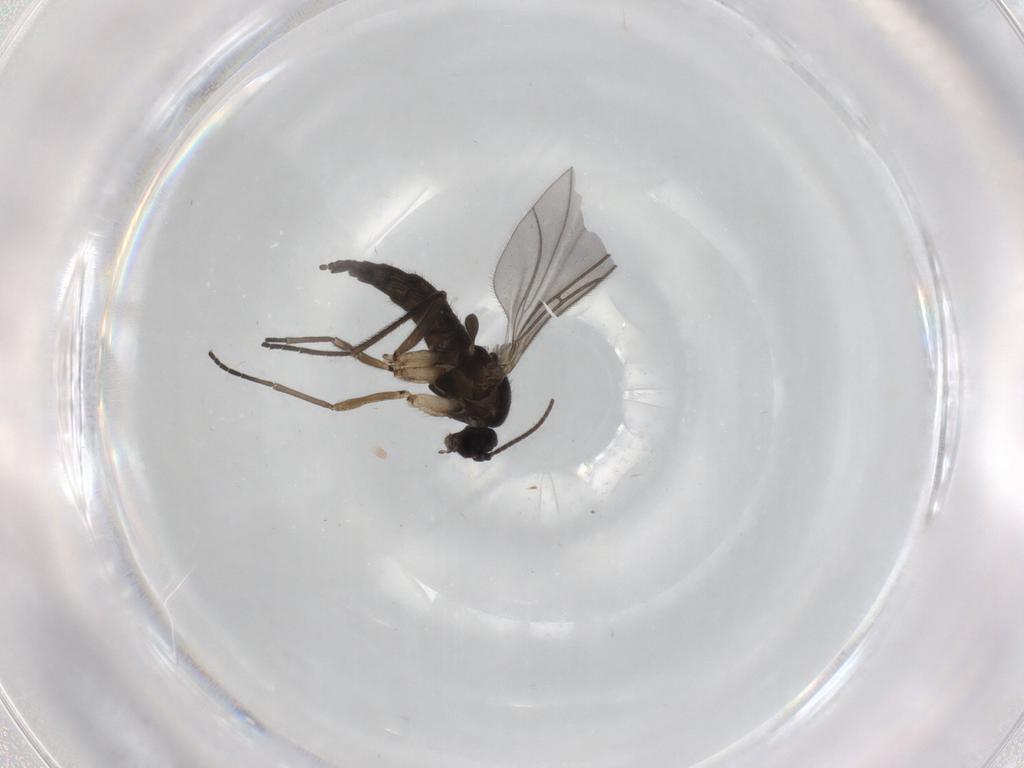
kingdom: Animalia
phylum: Arthropoda
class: Insecta
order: Diptera
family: Sciaridae
